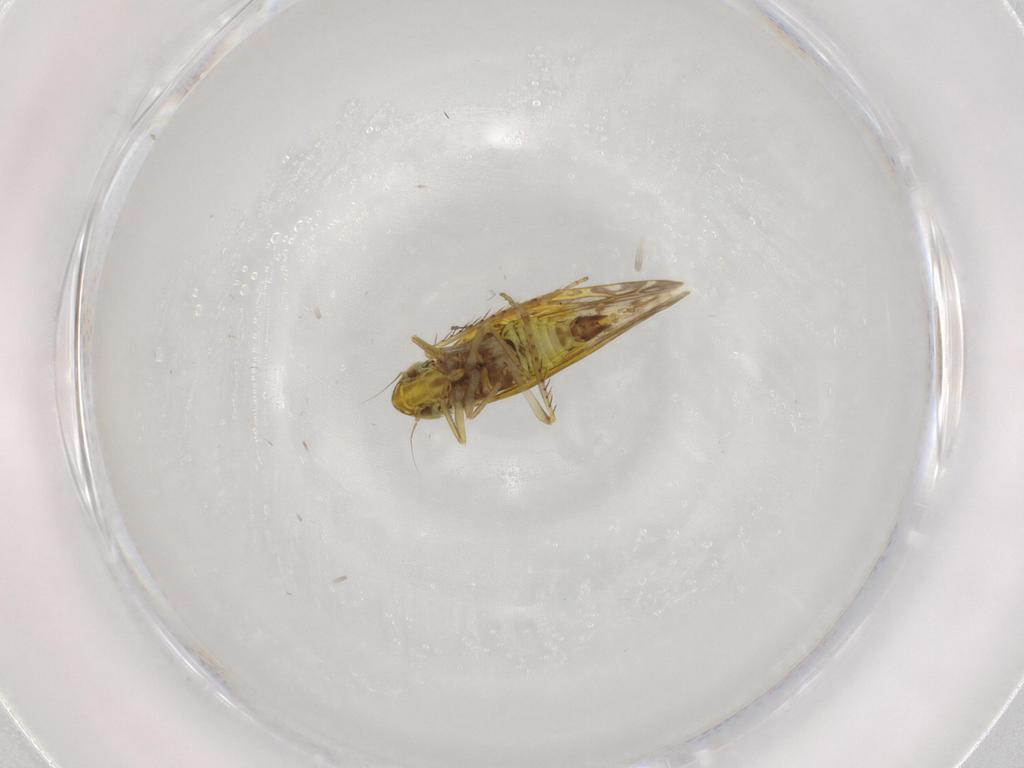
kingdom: Animalia
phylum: Arthropoda
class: Insecta
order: Hemiptera
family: Cicadellidae
